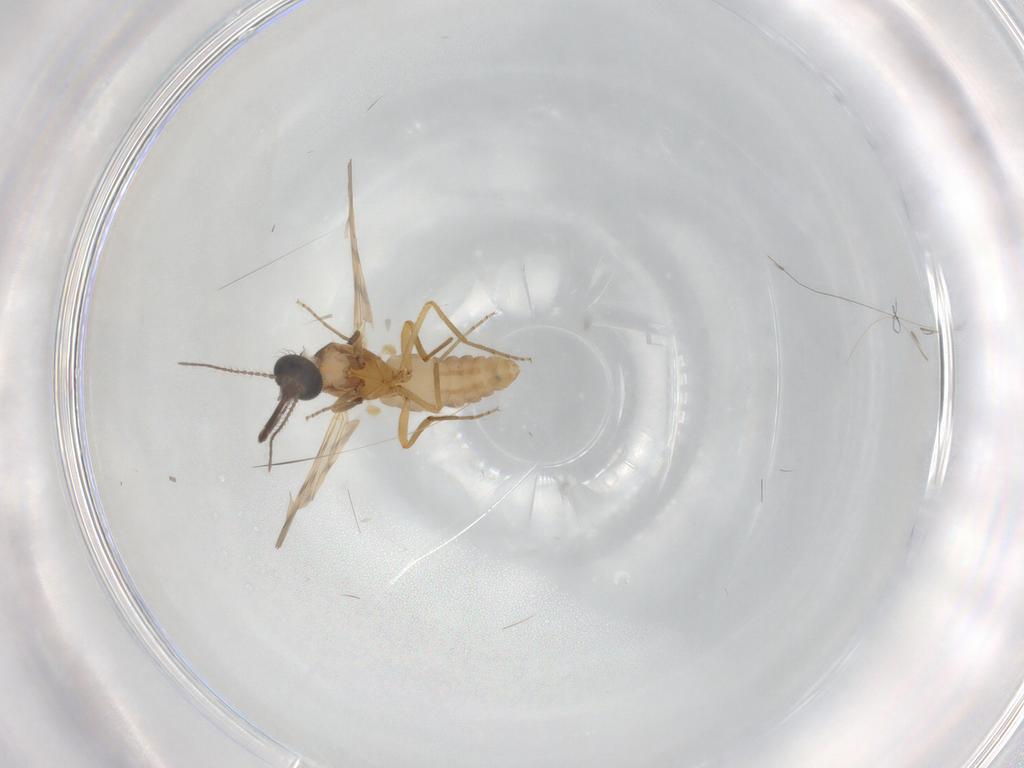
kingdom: Animalia
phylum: Arthropoda
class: Insecta
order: Diptera
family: Ceratopogonidae
